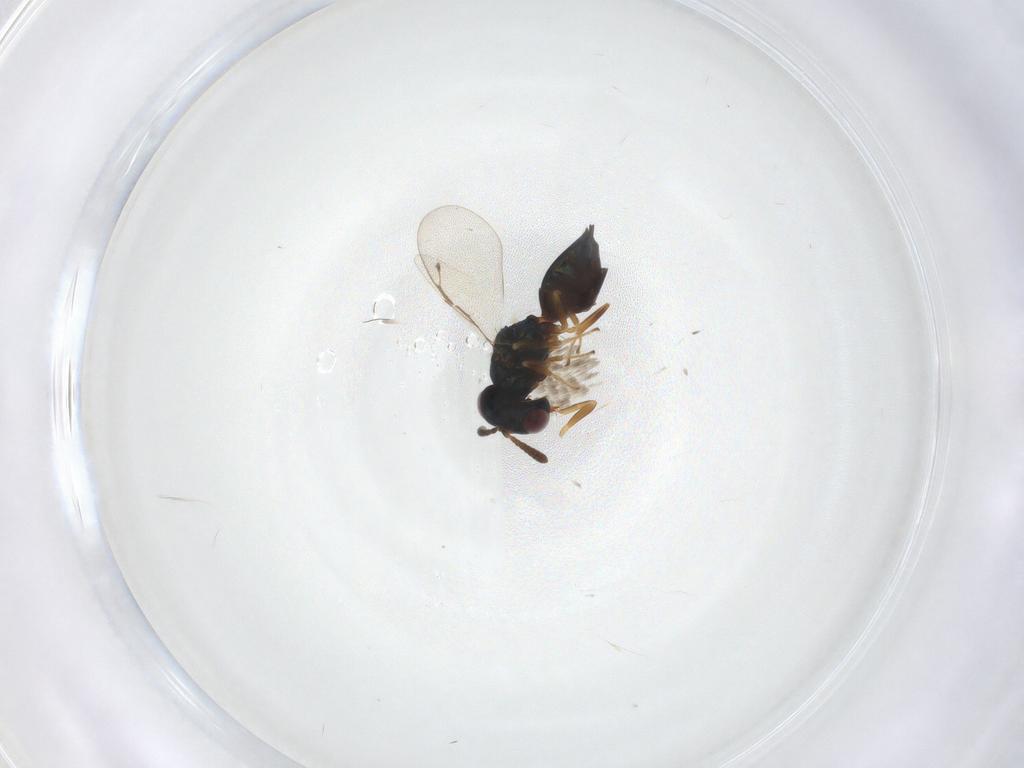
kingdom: Animalia
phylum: Arthropoda
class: Insecta
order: Hymenoptera
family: Pteromalidae
